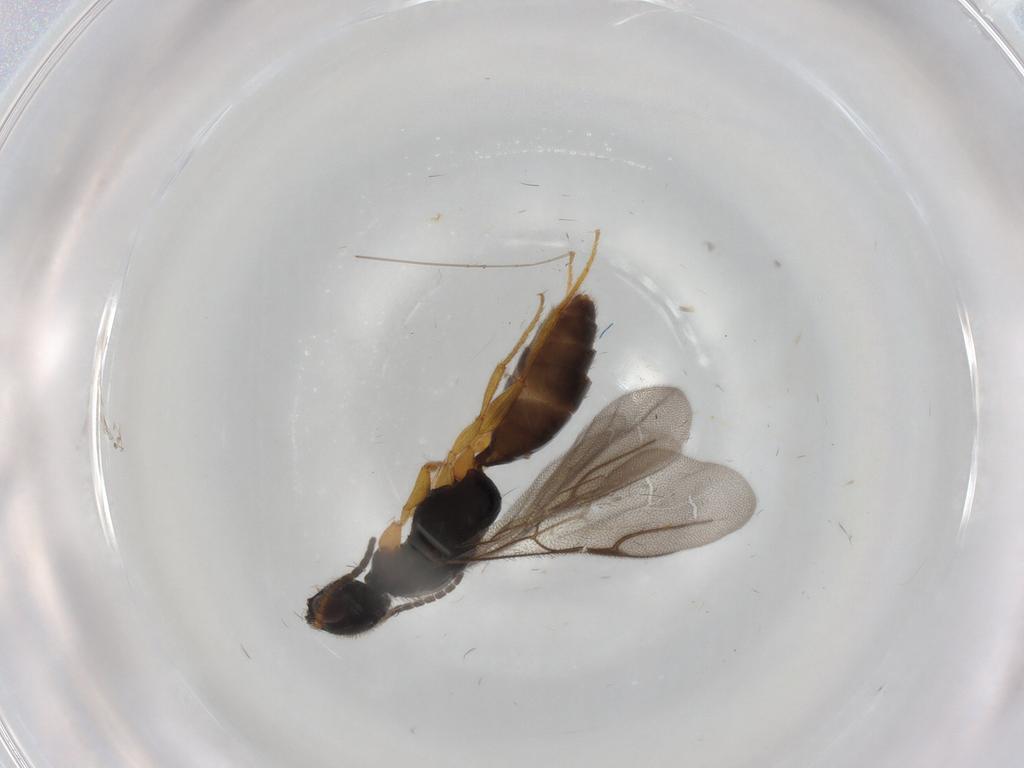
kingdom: Animalia
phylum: Arthropoda
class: Insecta
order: Hymenoptera
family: Bethylidae
